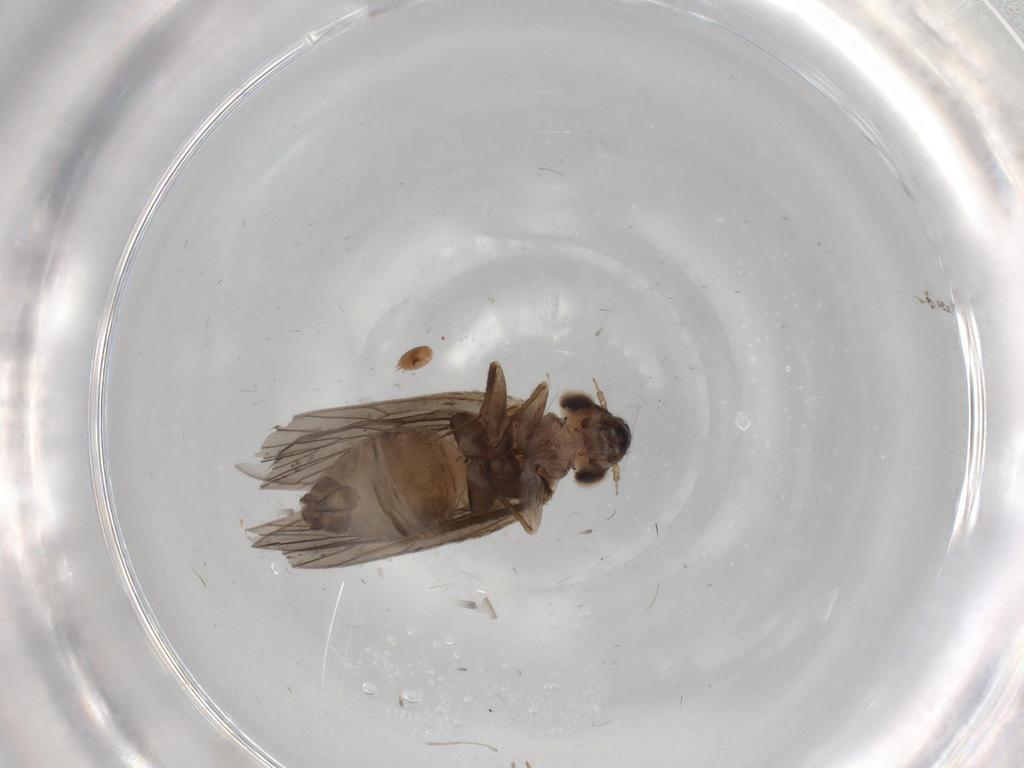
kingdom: Animalia
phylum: Arthropoda
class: Insecta
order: Psocodea
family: Lepidopsocidae
